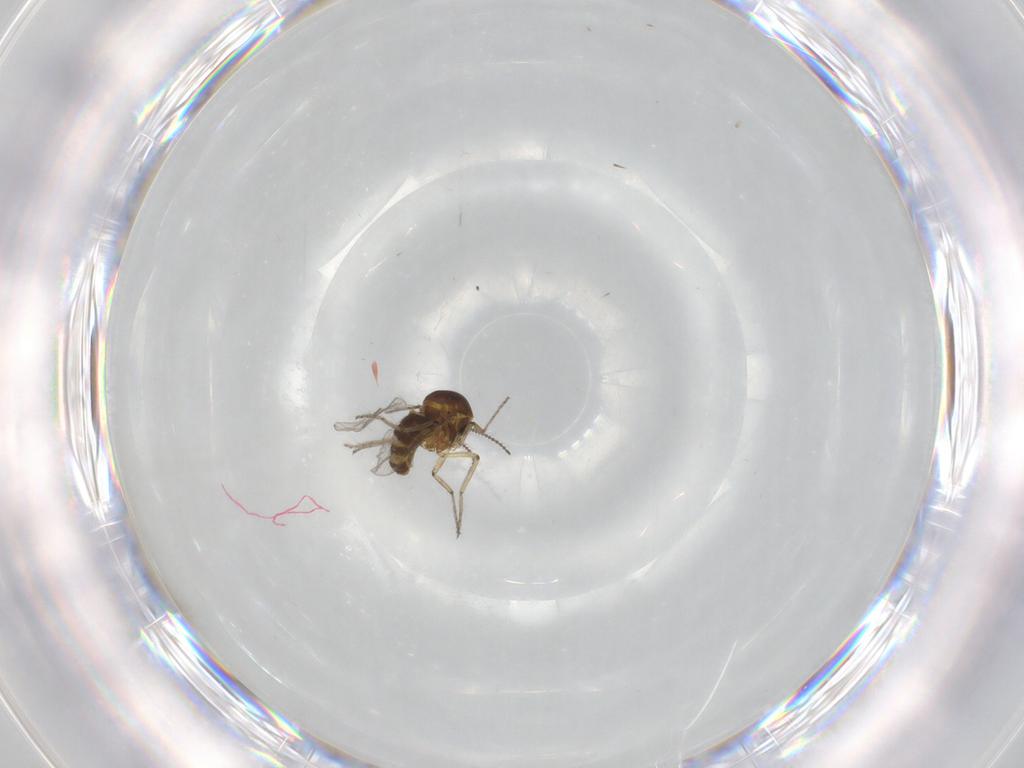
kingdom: Animalia
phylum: Arthropoda
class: Insecta
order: Diptera
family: Ceratopogonidae
